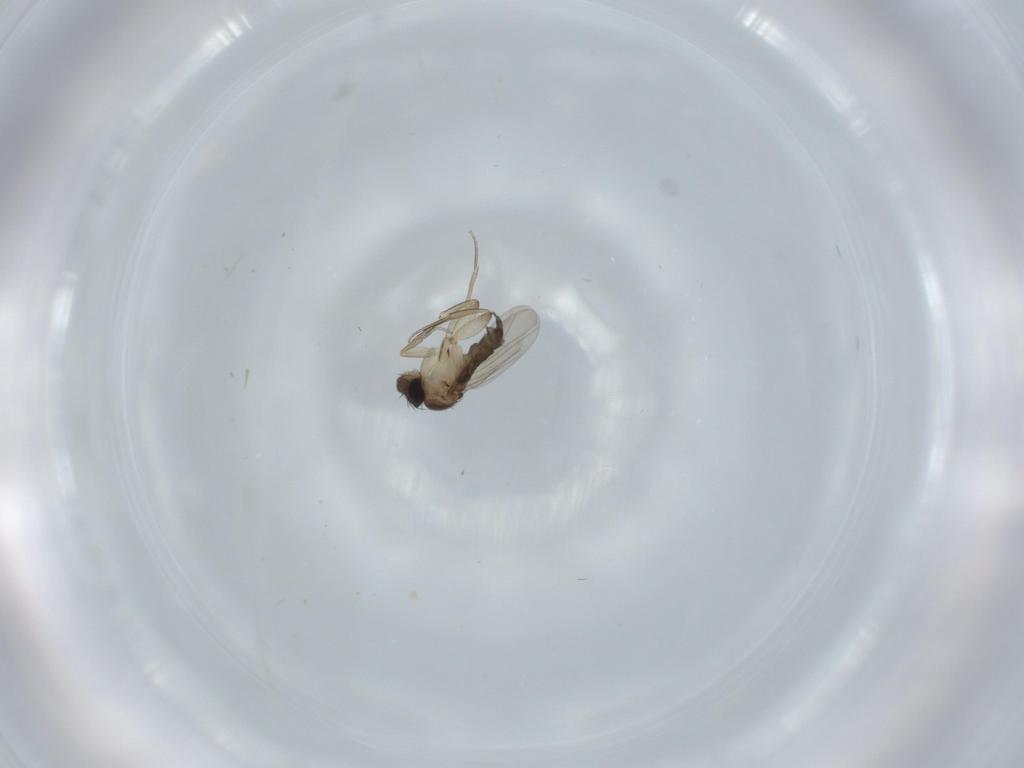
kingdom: Animalia
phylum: Arthropoda
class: Insecta
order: Diptera
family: Phoridae
